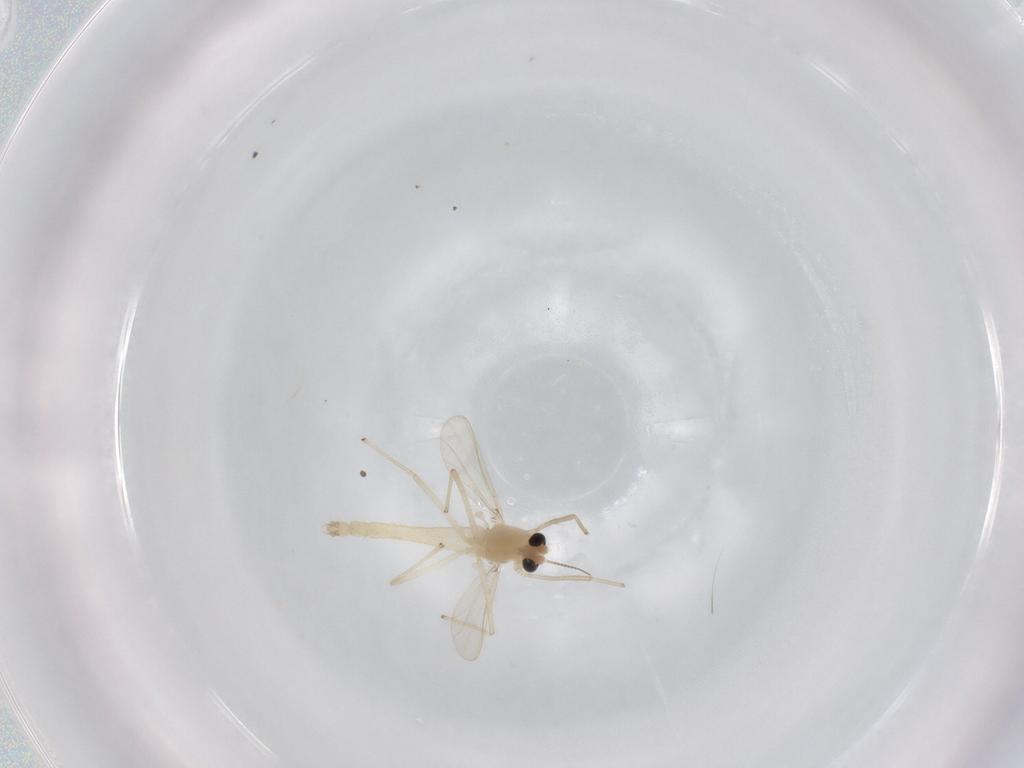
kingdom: Animalia
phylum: Arthropoda
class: Insecta
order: Diptera
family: Chironomidae
